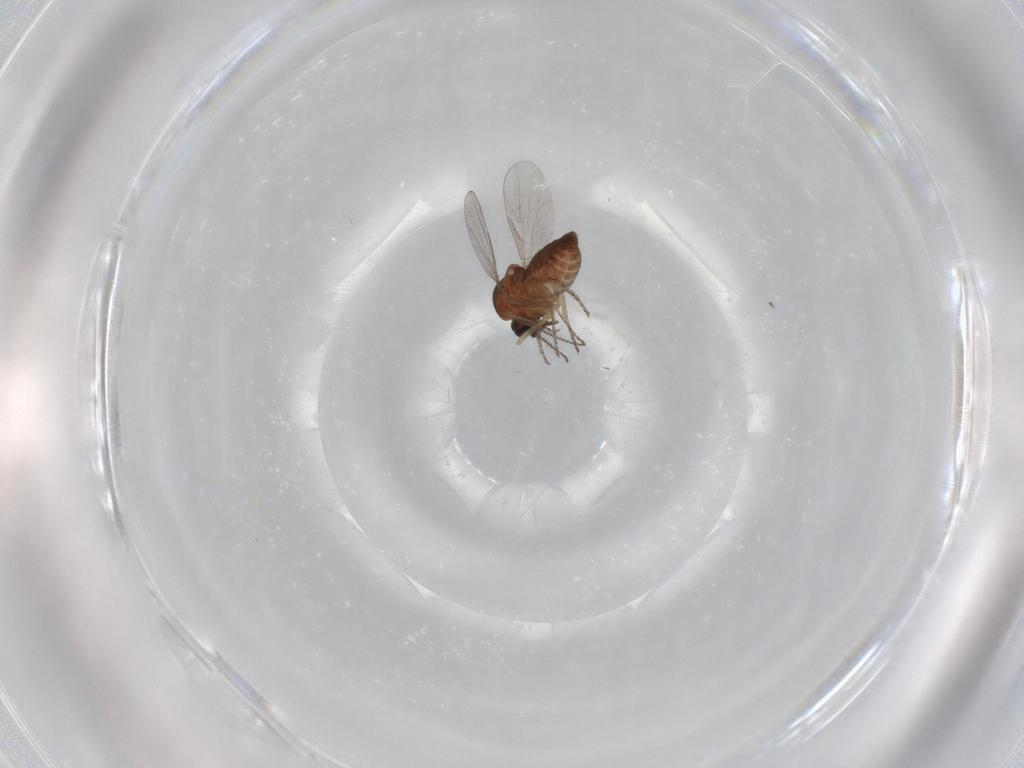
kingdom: Animalia
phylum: Arthropoda
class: Insecta
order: Diptera
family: Ceratopogonidae
